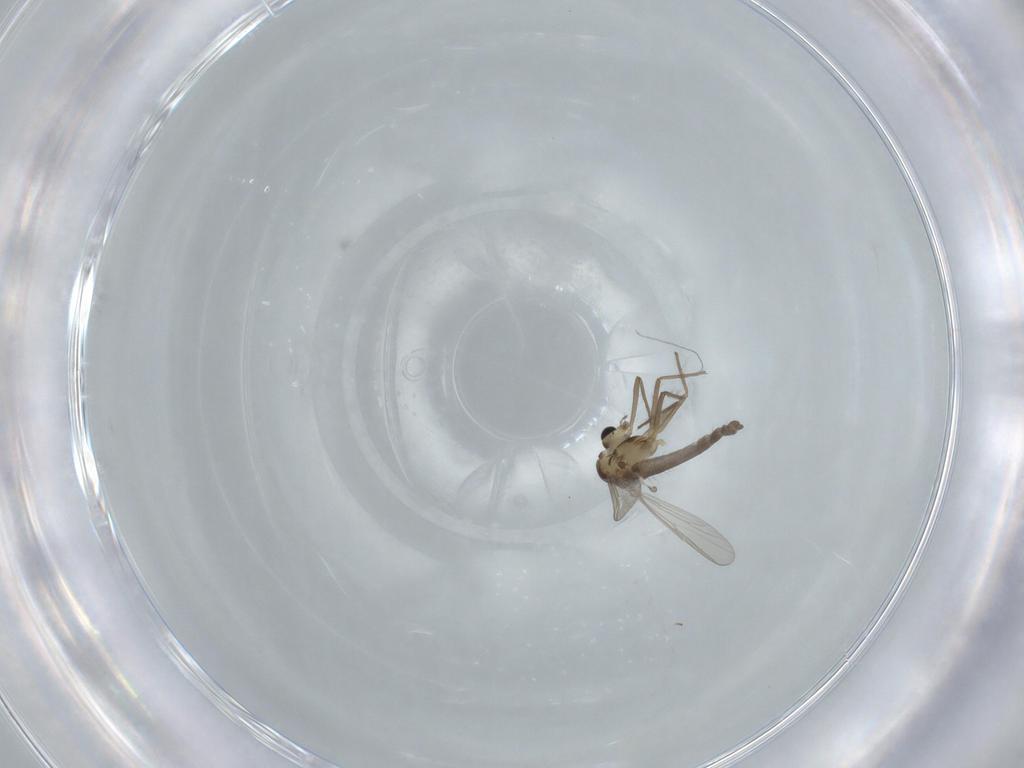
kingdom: Animalia
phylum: Arthropoda
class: Insecta
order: Diptera
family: Chironomidae
